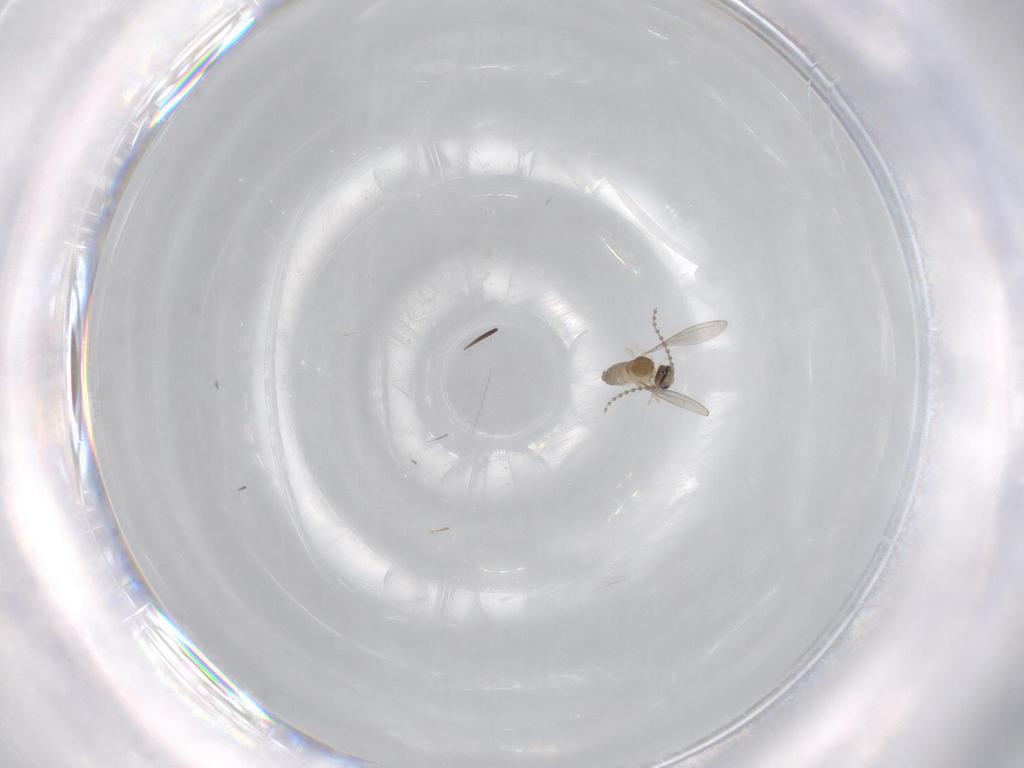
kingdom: Animalia
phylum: Arthropoda
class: Insecta
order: Diptera
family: Cecidomyiidae
